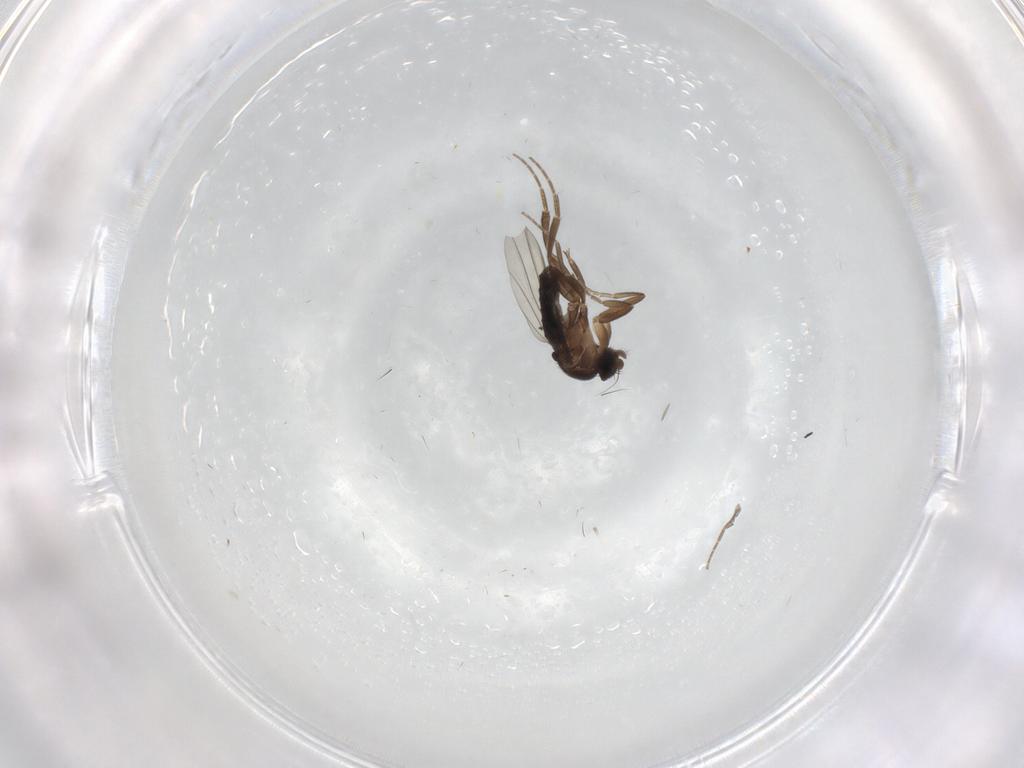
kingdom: Animalia
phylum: Arthropoda
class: Insecta
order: Diptera
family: Phoridae
